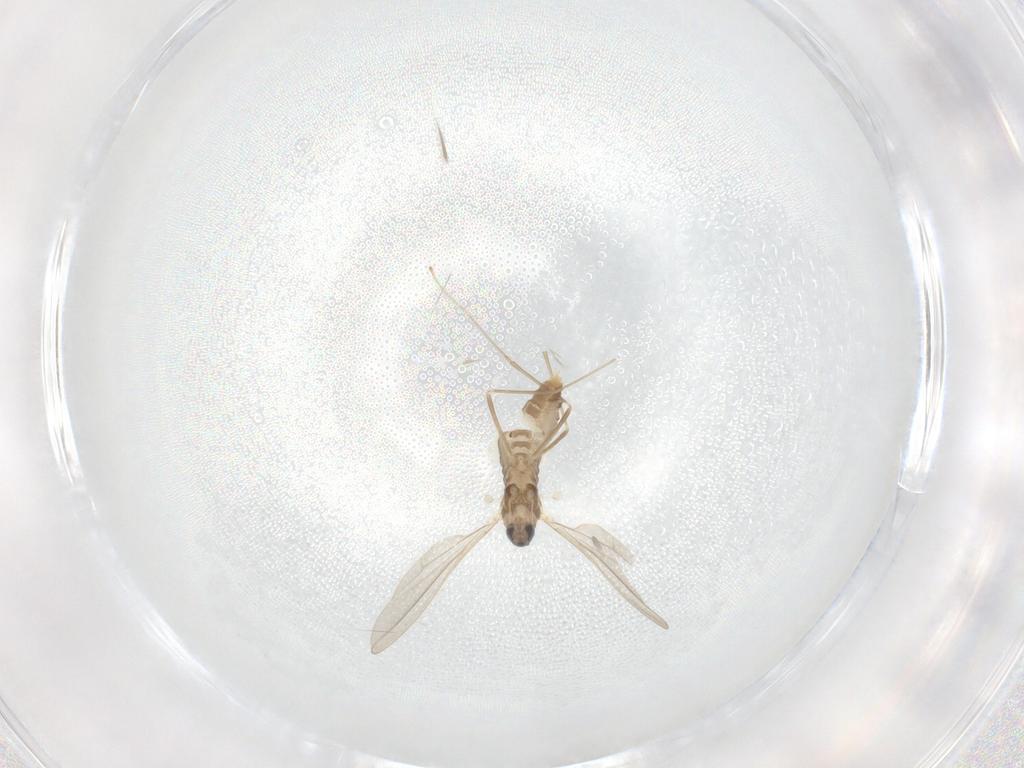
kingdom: Animalia
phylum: Arthropoda
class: Insecta
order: Diptera
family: Cecidomyiidae
